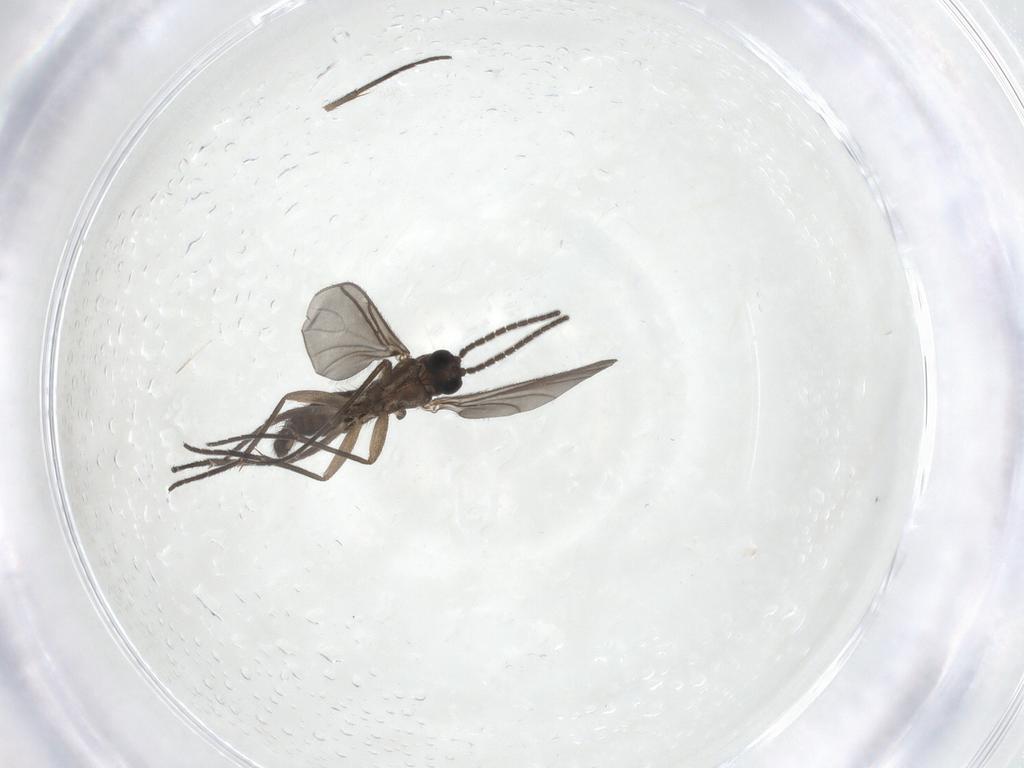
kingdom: Animalia
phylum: Arthropoda
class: Insecta
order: Diptera
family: Sciaridae
